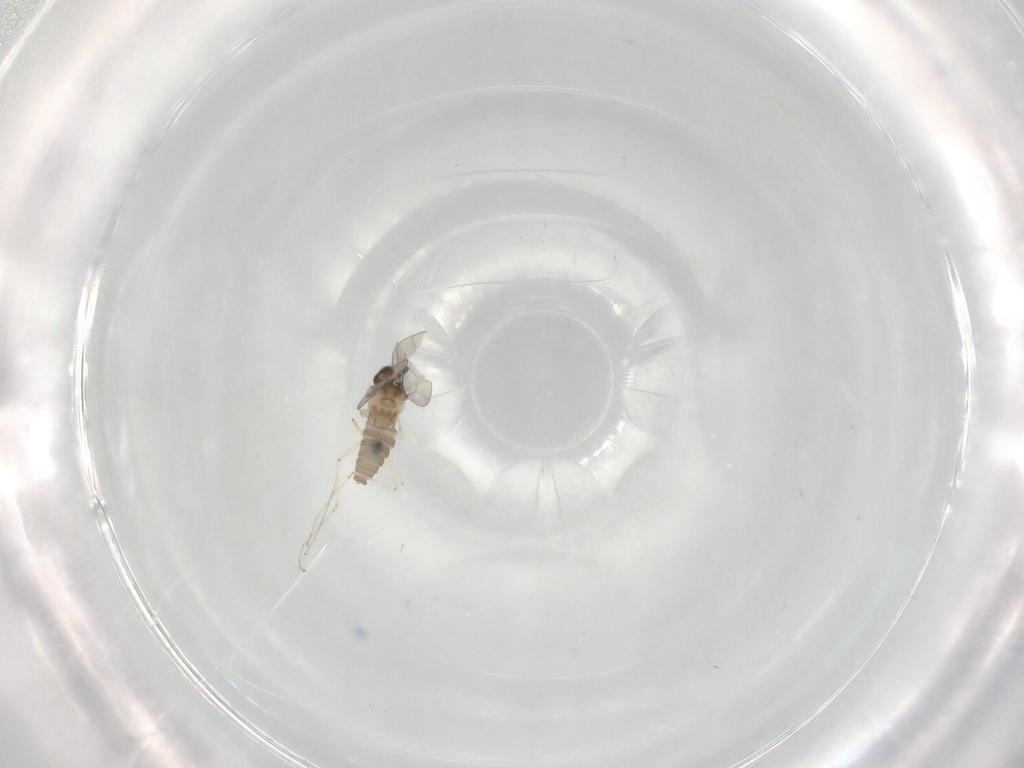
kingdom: Animalia
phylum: Arthropoda
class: Insecta
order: Diptera
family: Cecidomyiidae
